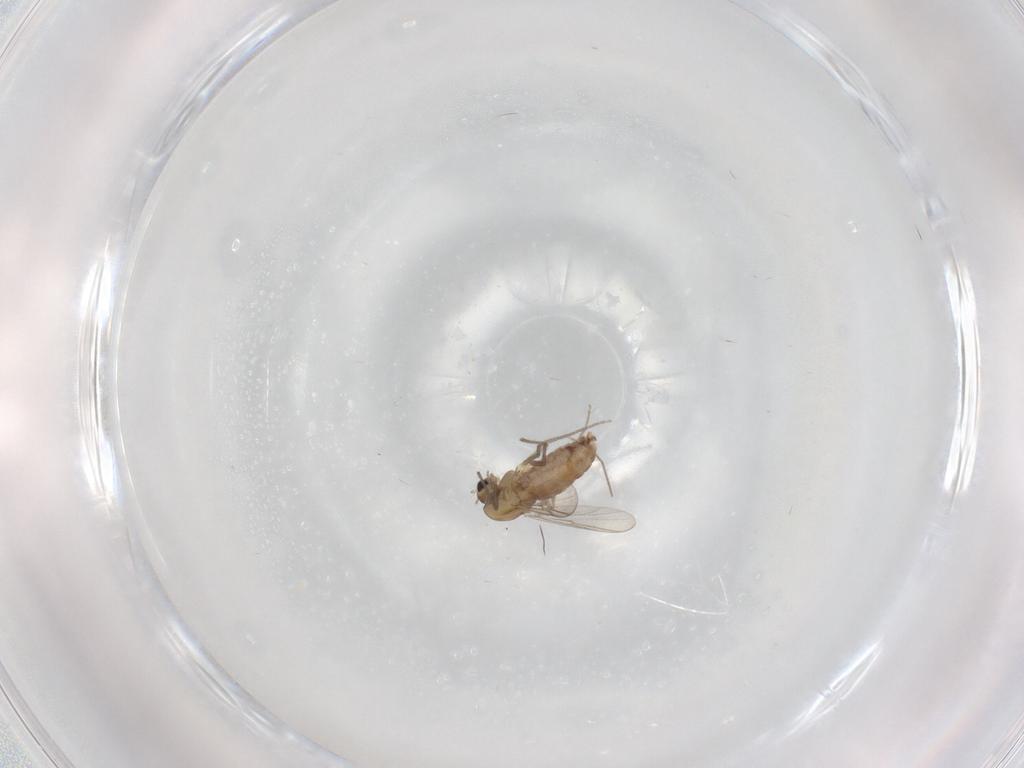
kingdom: Animalia
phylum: Arthropoda
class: Insecta
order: Diptera
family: Chironomidae
